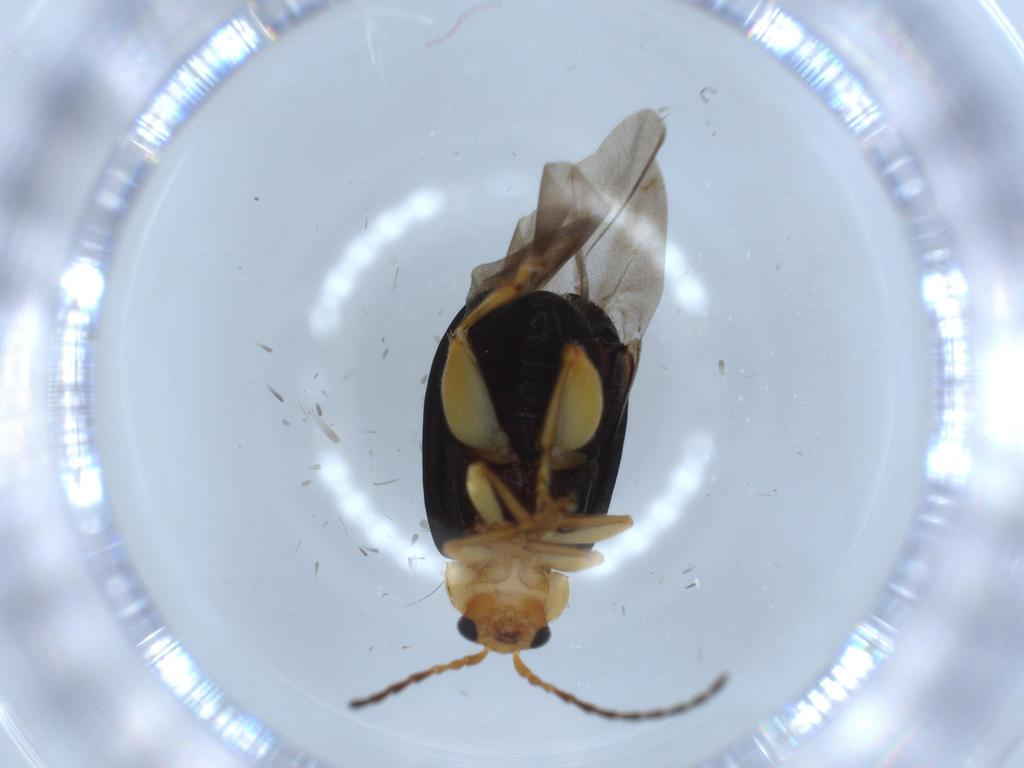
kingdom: Animalia
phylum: Arthropoda
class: Insecta
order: Coleoptera
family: Chrysomelidae
